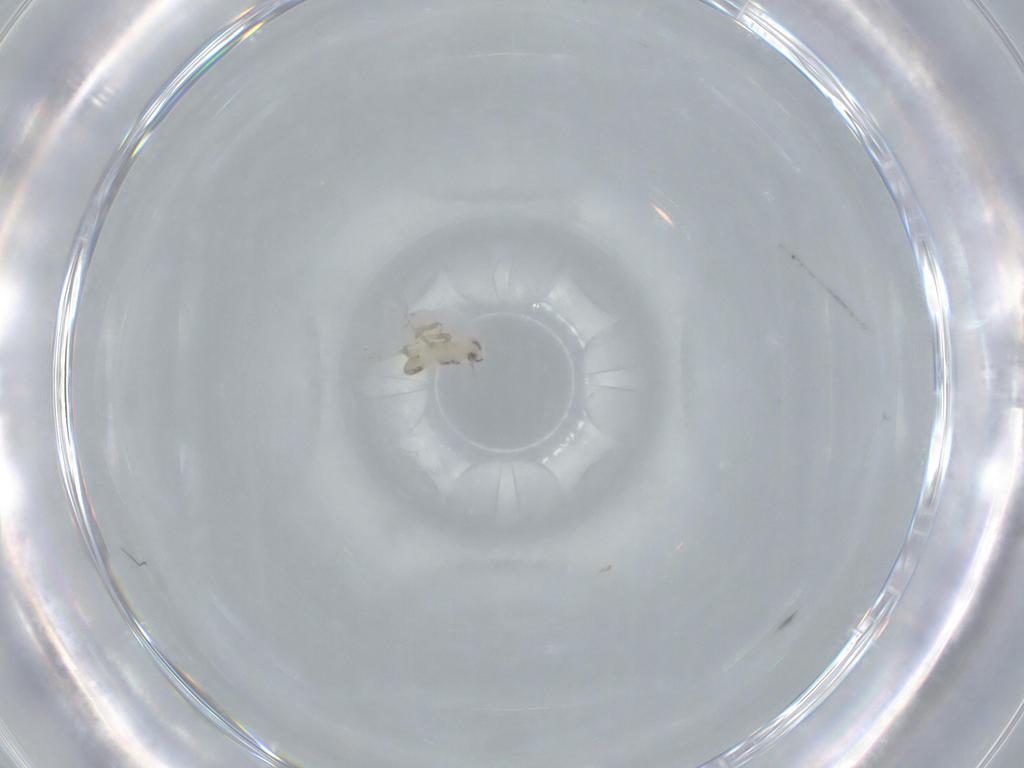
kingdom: Animalia
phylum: Arthropoda
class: Insecta
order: Hemiptera
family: Delphacidae
